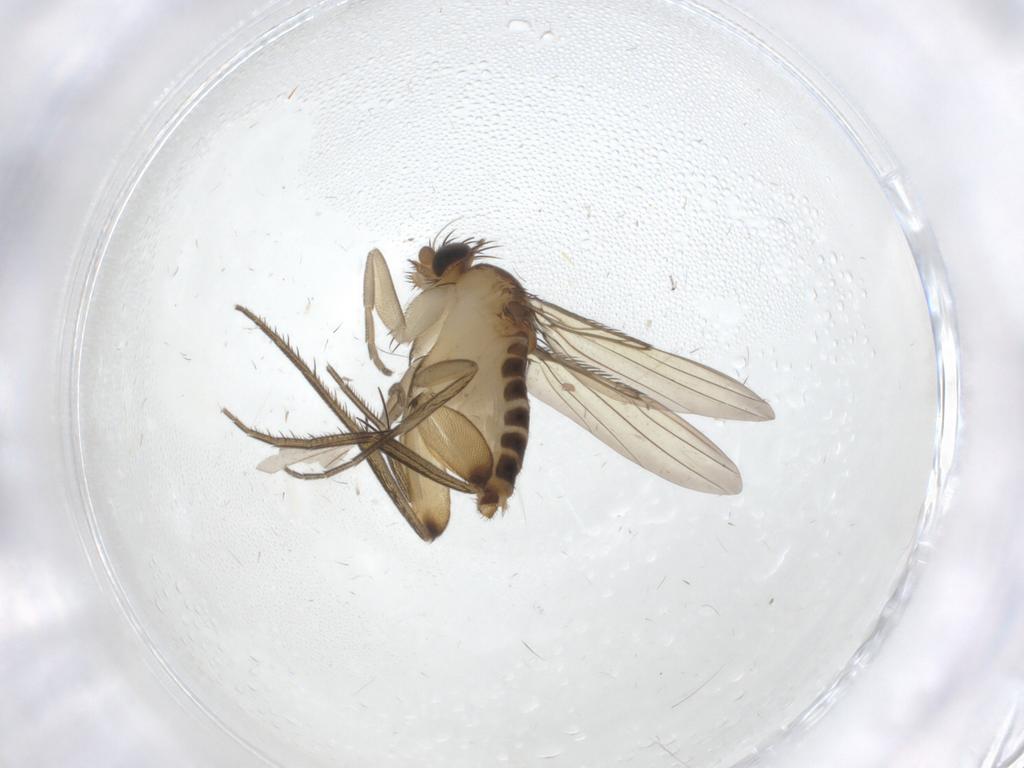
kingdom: Animalia
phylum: Arthropoda
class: Insecta
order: Diptera
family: Phoridae
